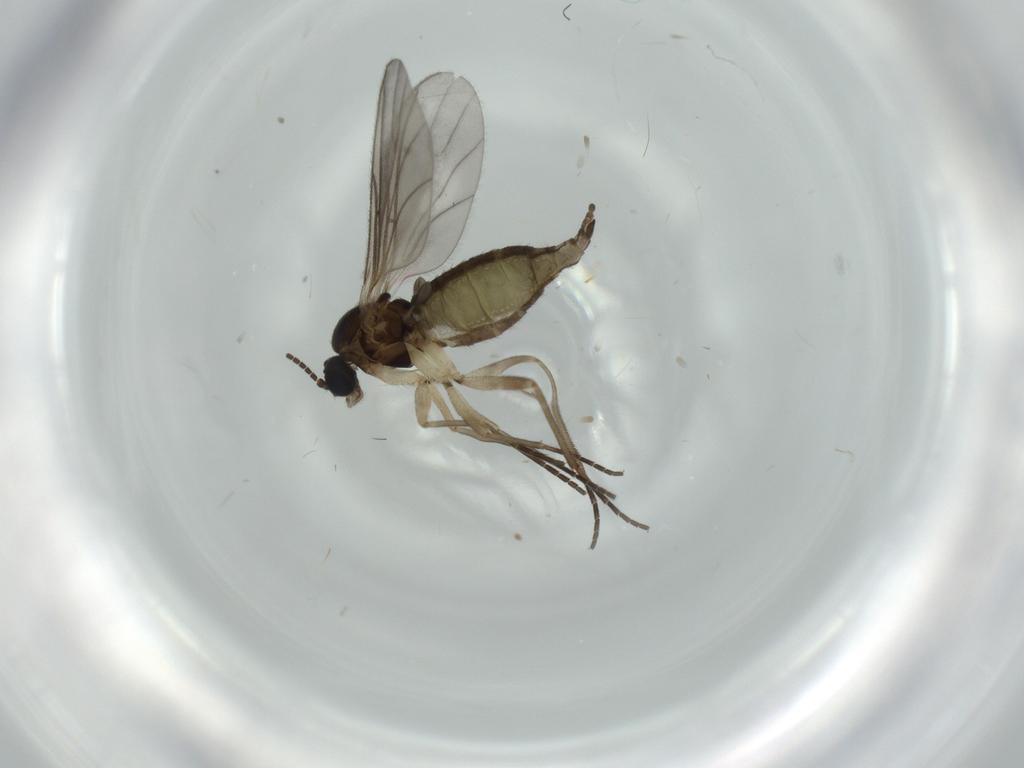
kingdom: Animalia
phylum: Arthropoda
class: Insecta
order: Diptera
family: Sciaridae
